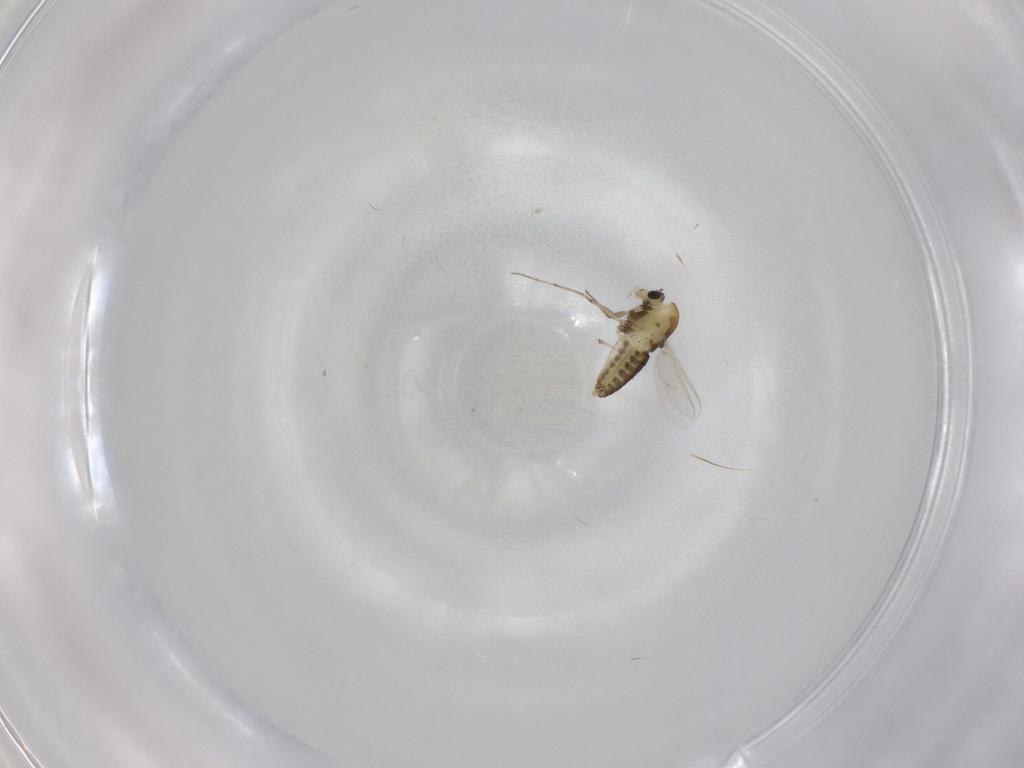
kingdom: Animalia
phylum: Arthropoda
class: Insecta
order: Diptera
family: Chironomidae
